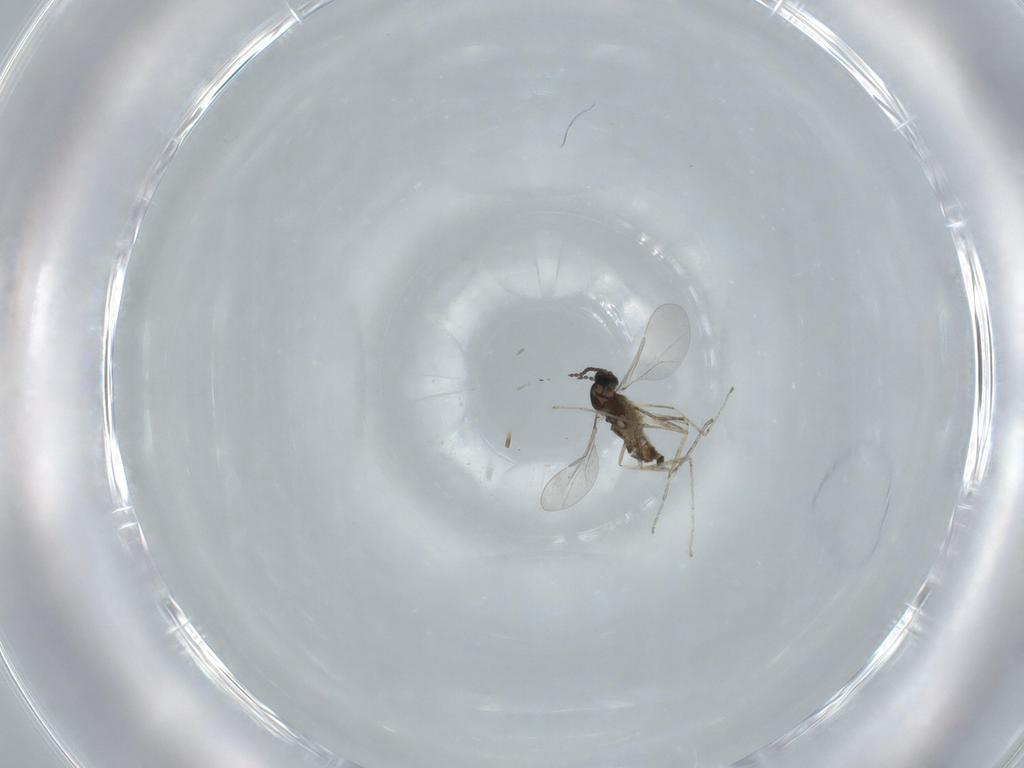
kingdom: Animalia
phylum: Arthropoda
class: Insecta
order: Diptera
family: Cecidomyiidae
